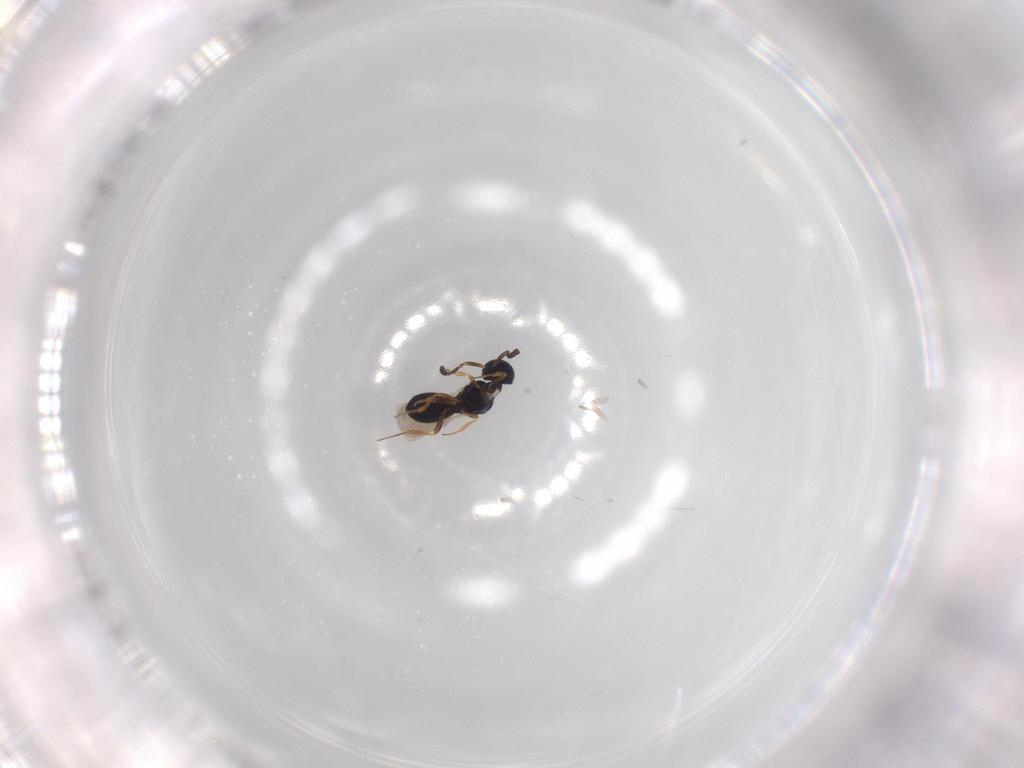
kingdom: Animalia
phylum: Arthropoda
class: Insecta
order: Hymenoptera
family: Scelionidae
